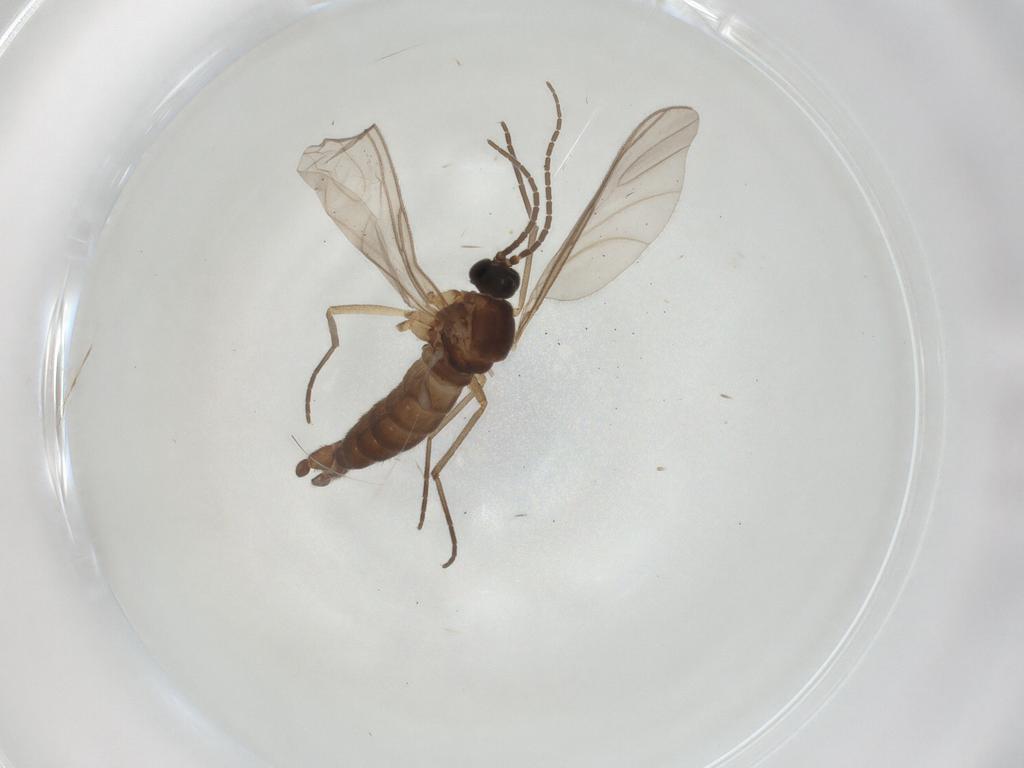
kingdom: Animalia
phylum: Arthropoda
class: Insecta
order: Diptera
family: Sciaridae
